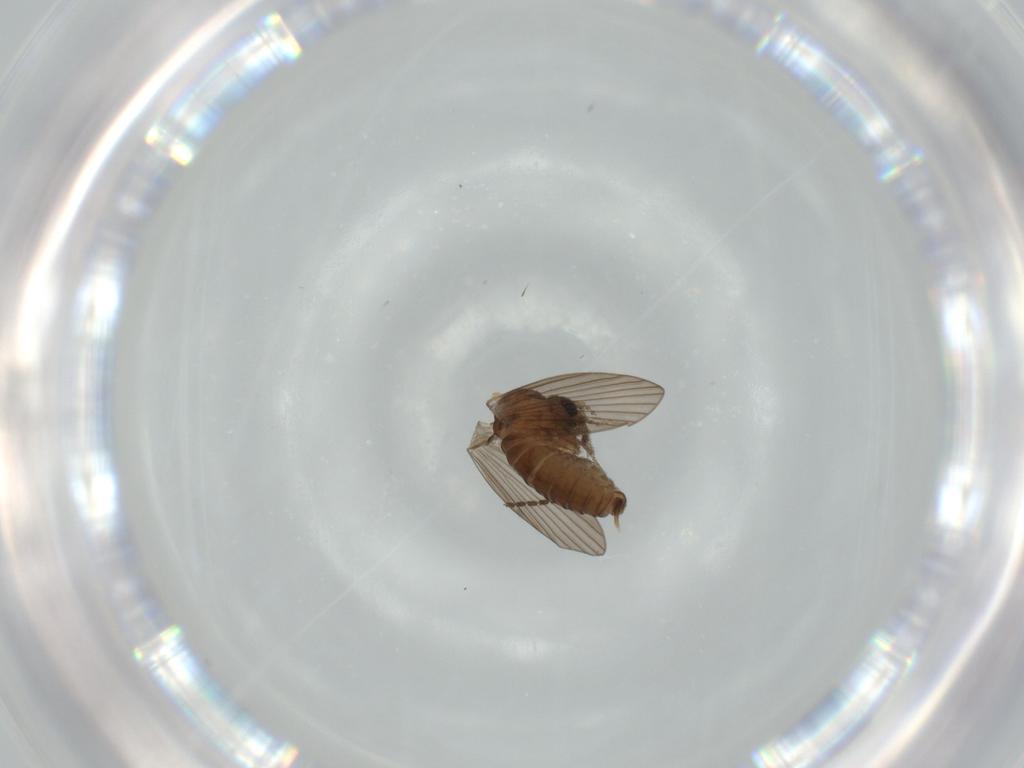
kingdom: Animalia
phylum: Arthropoda
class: Insecta
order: Diptera
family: Psychodidae
